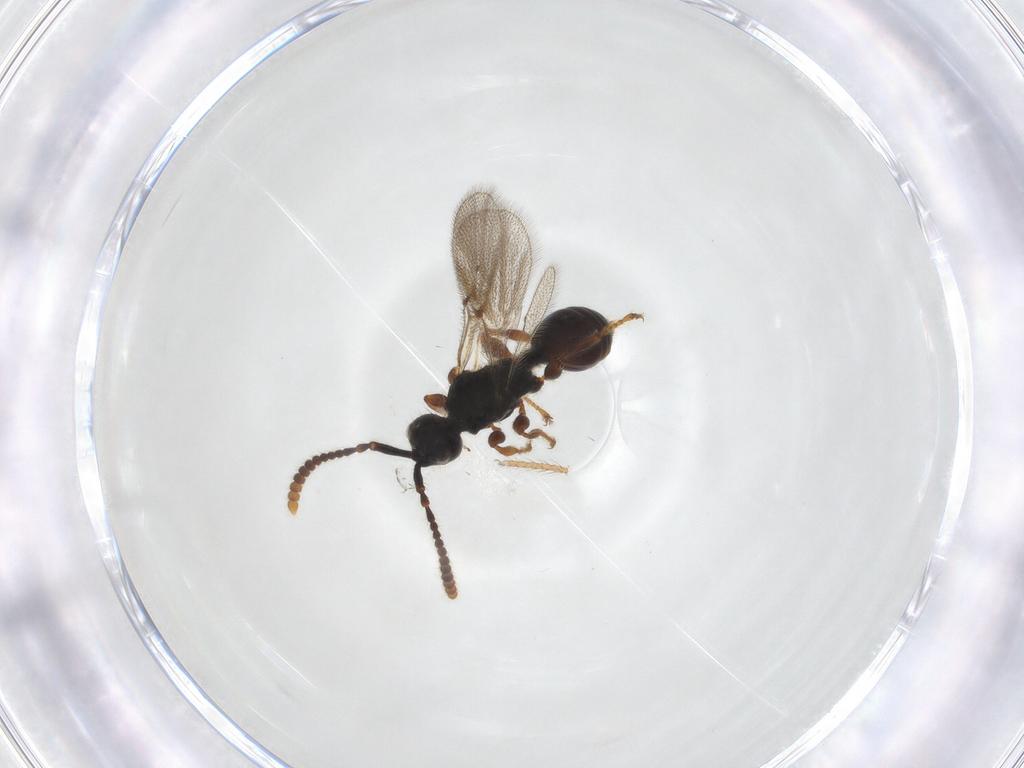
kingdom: Animalia
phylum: Arthropoda
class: Insecta
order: Hymenoptera
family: Diapriidae
